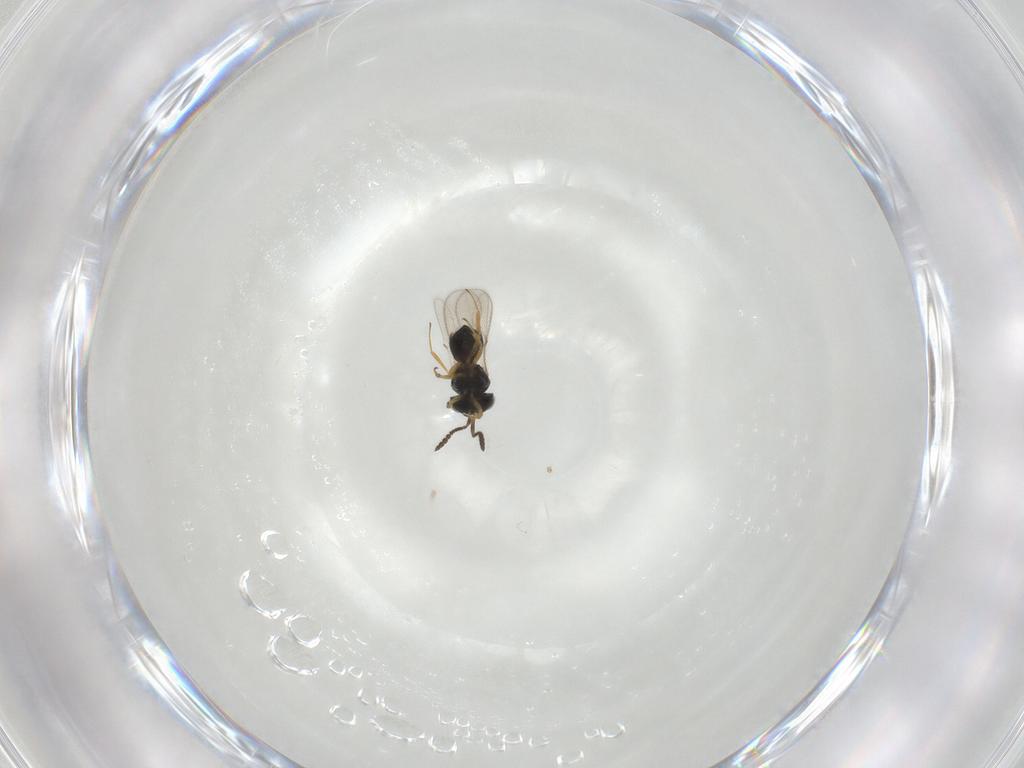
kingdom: Animalia
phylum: Arthropoda
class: Insecta
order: Hymenoptera
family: Scelionidae
